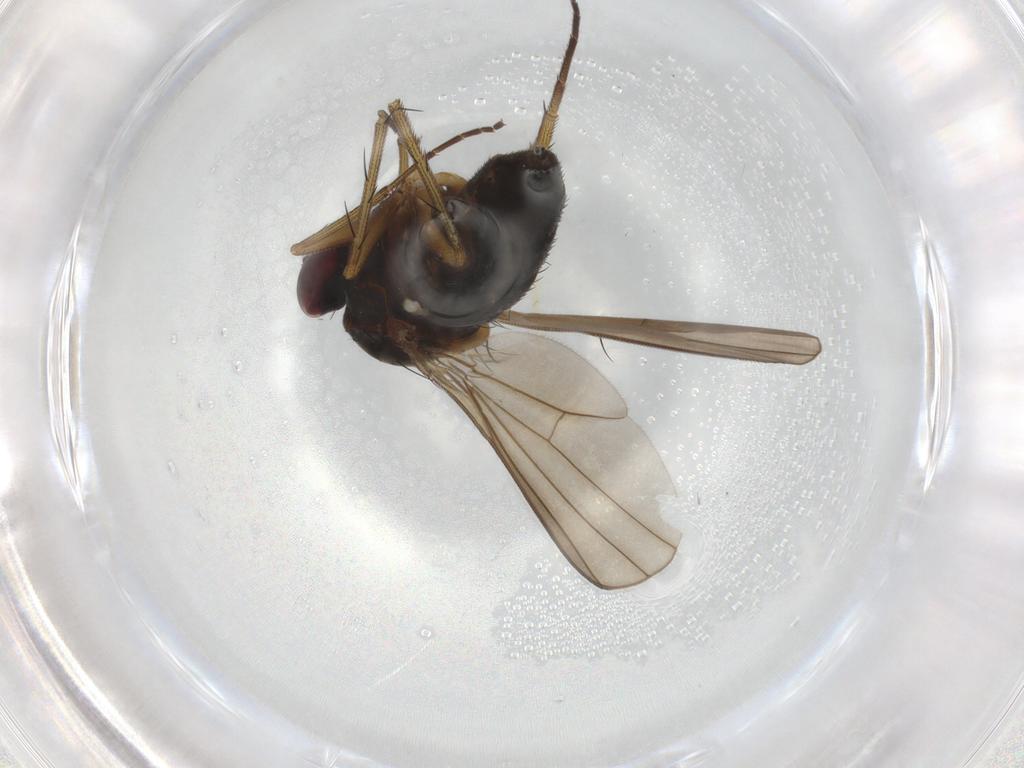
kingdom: Animalia
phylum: Arthropoda
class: Insecta
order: Diptera
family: Dolichopodidae
